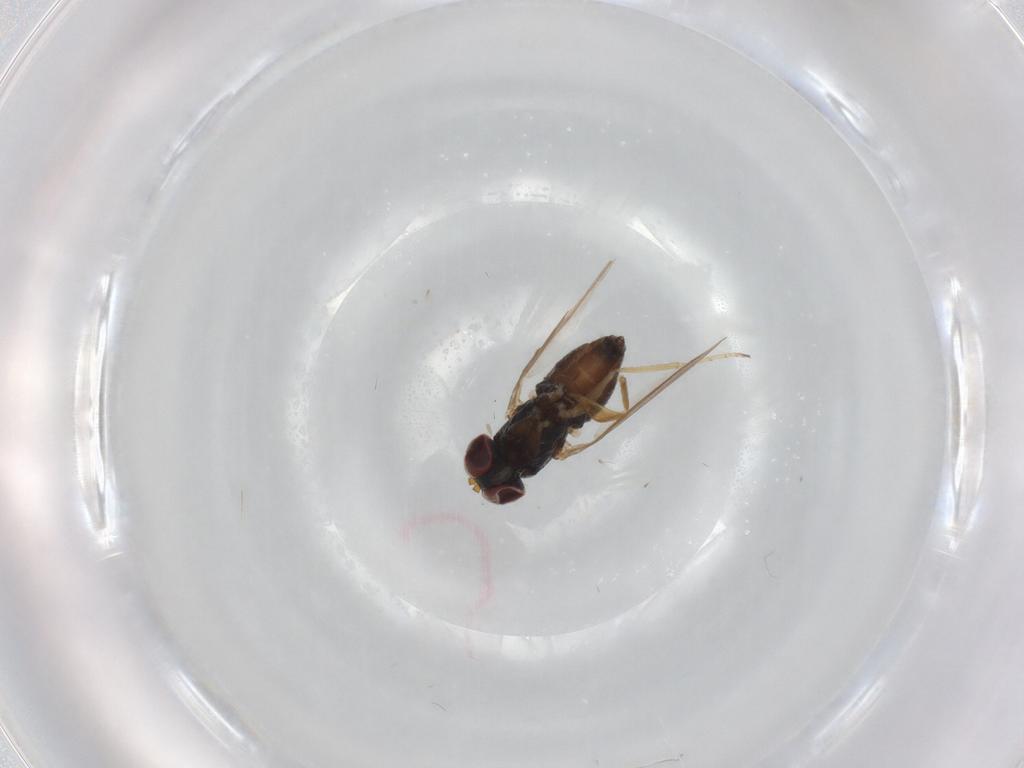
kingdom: Animalia
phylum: Arthropoda
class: Insecta
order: Diptera
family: Dolichopodidae
